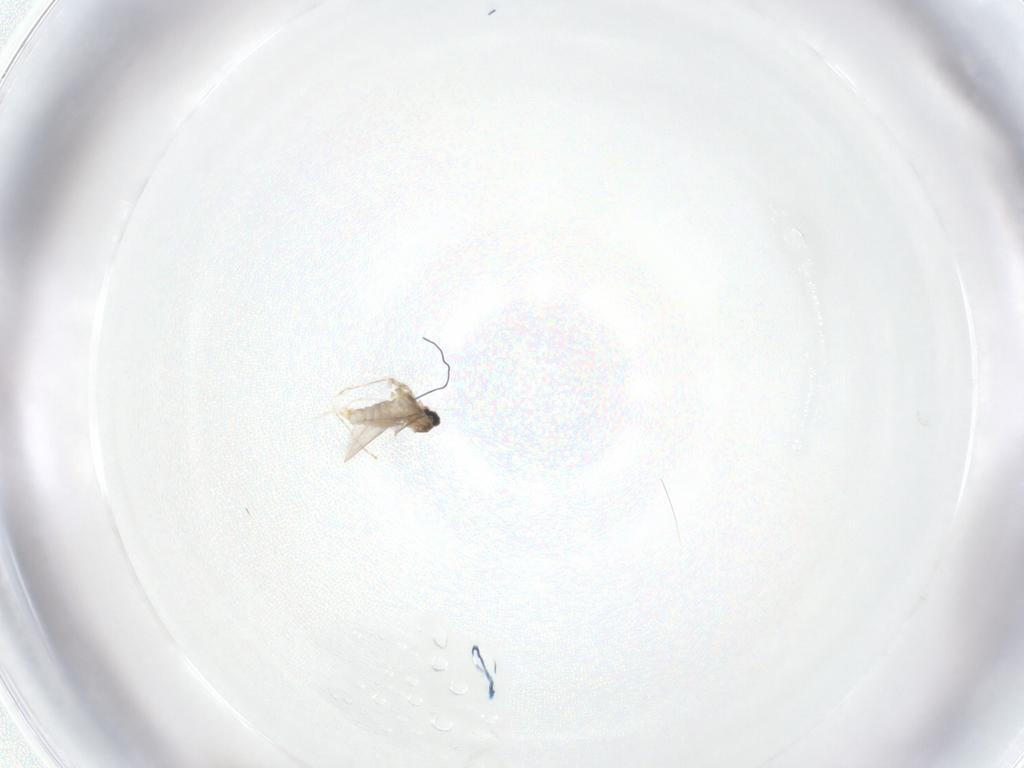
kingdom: Animalia
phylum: Arthropoda
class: Insecta
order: Diptera
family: Cecidomyiidae
